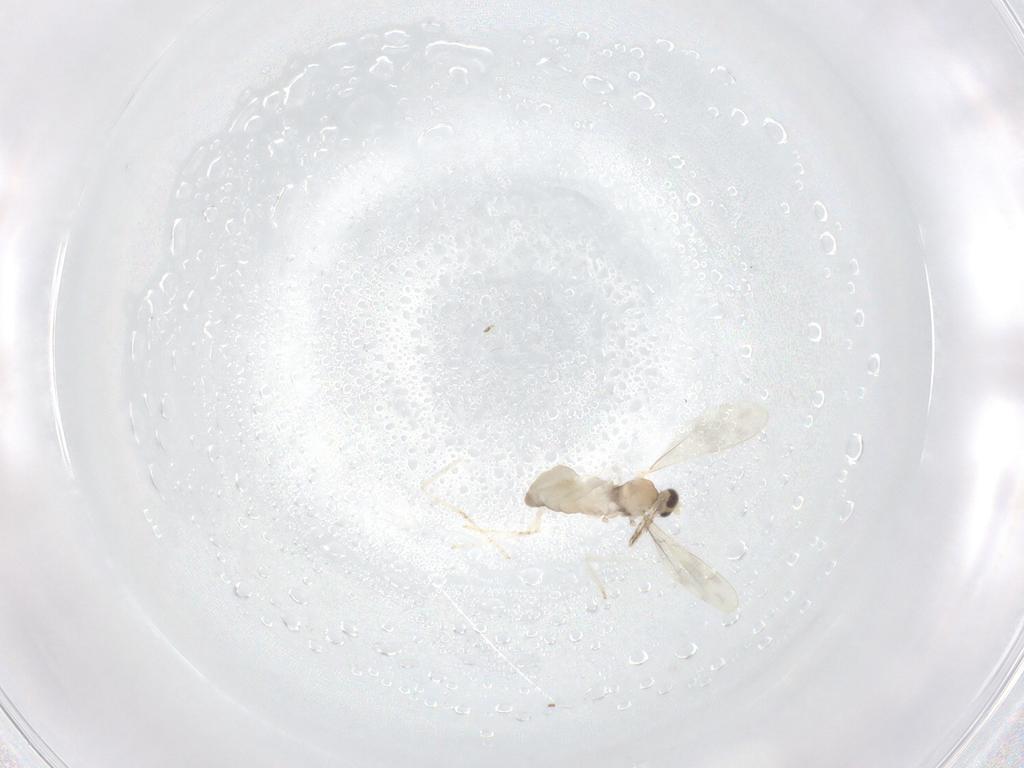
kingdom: Animalia
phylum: Arthropoda
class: Insecta
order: Diptera
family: Cecidomyiidae
